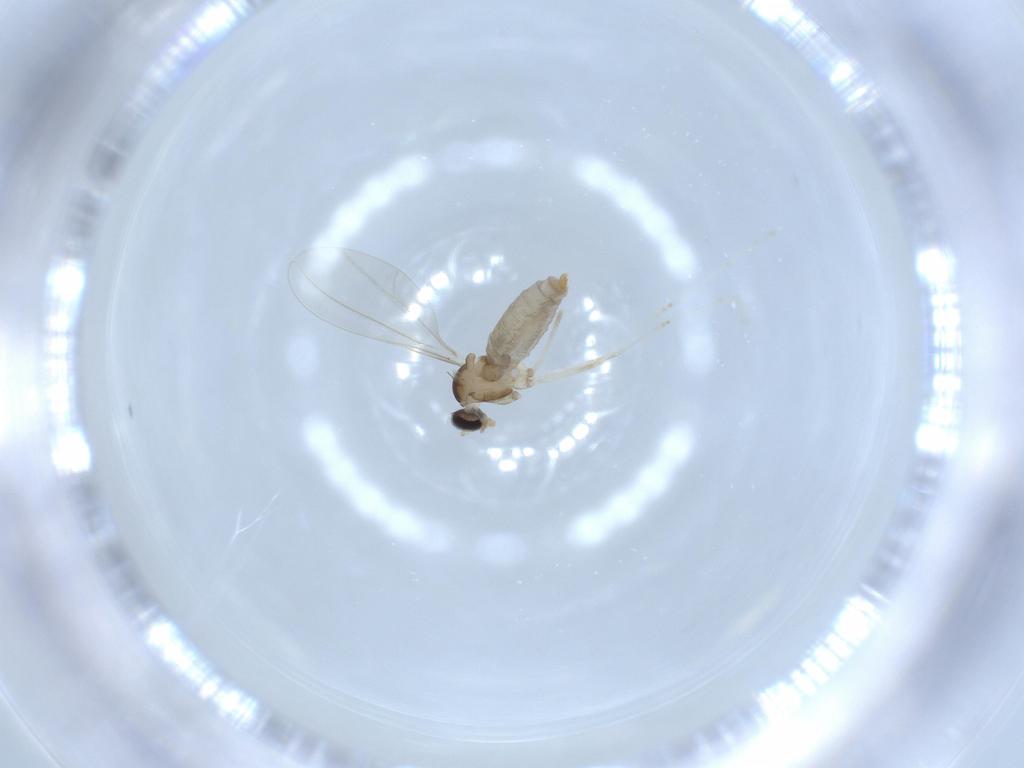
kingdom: Animalia
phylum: Arthropoda
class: Insecta
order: Diptera
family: Cecidomyiidae
